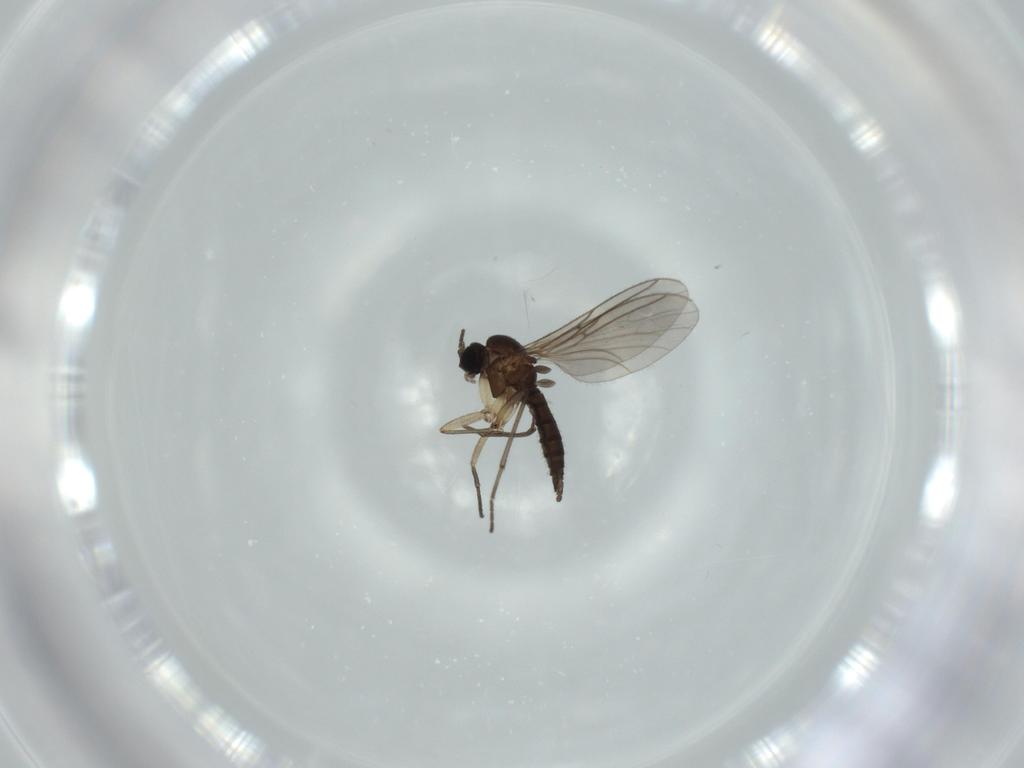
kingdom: Animalia
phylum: Arthropoda
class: Insecta
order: Diptera
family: Sciaridae
